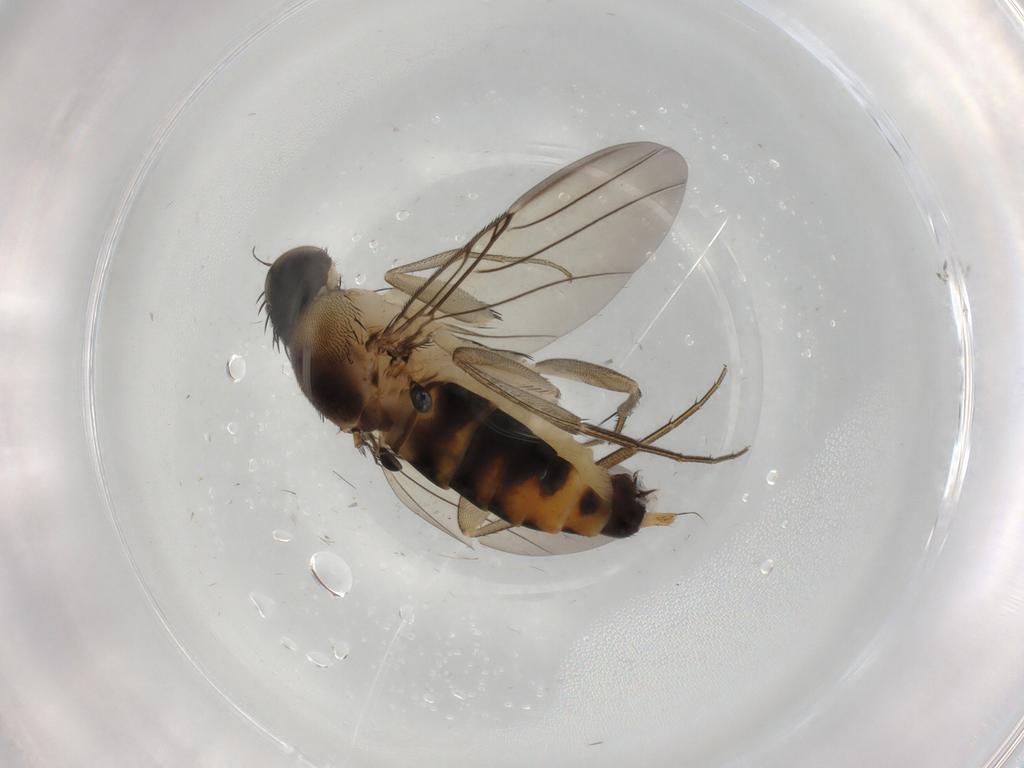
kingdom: Animalia
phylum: Arthropoda
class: Insecta
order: Diptera
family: Phoridae
